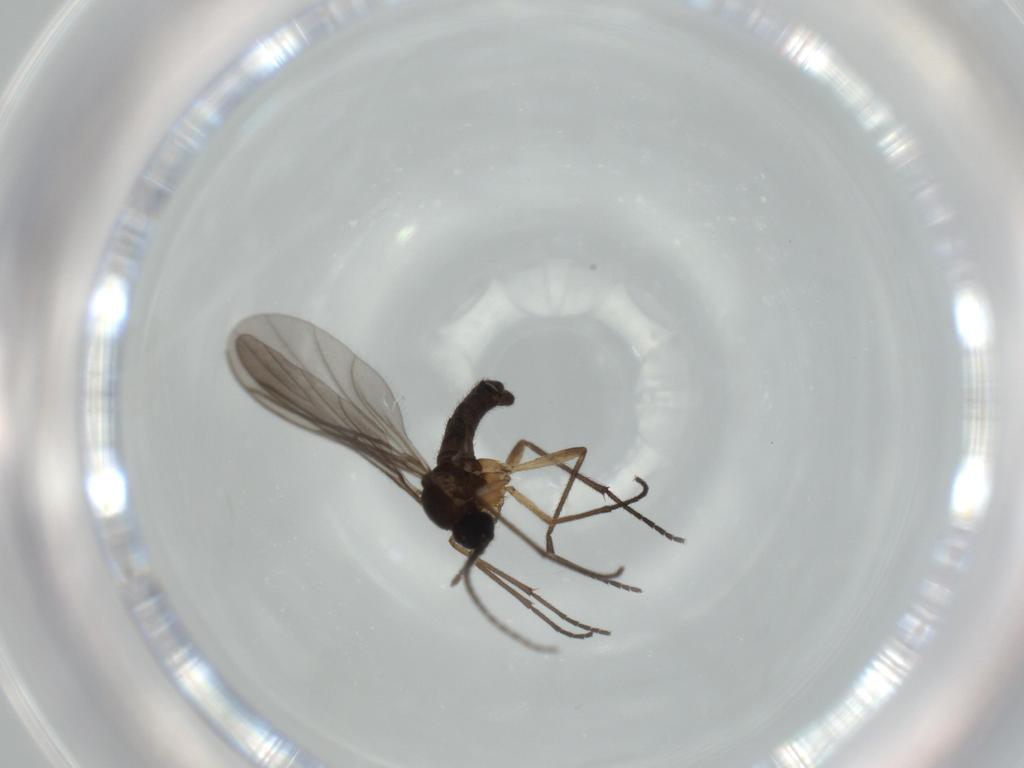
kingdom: Animalia
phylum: Arthropoda
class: Insecta
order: Diptera
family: Sciaridae
